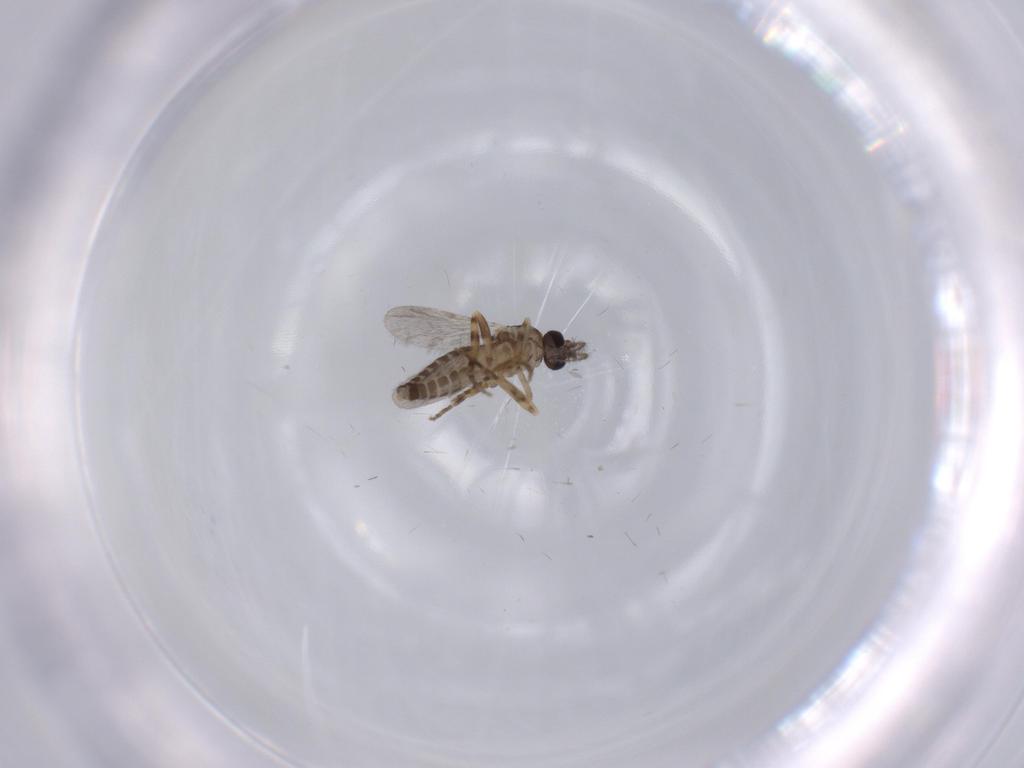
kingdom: Animalia
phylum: Arthropoda
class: Insecta
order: Diptera
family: Ceratopogonidae
